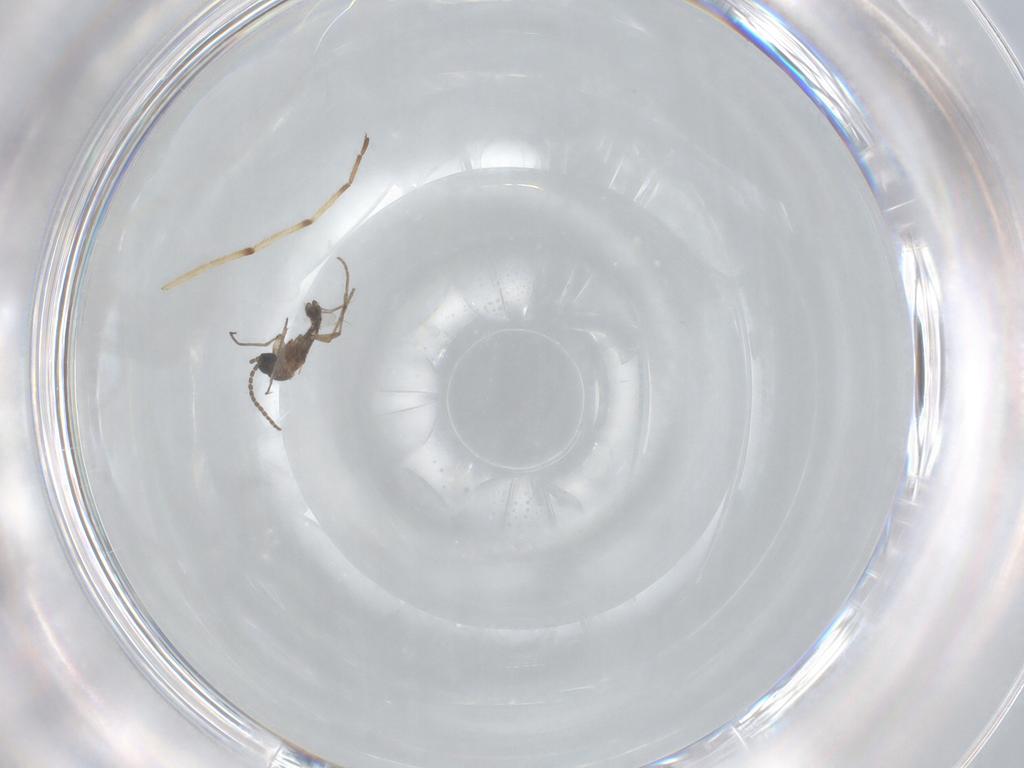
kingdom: Animalia
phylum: Arthropoda
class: Insecta
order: Diptera
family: Sciaridae
